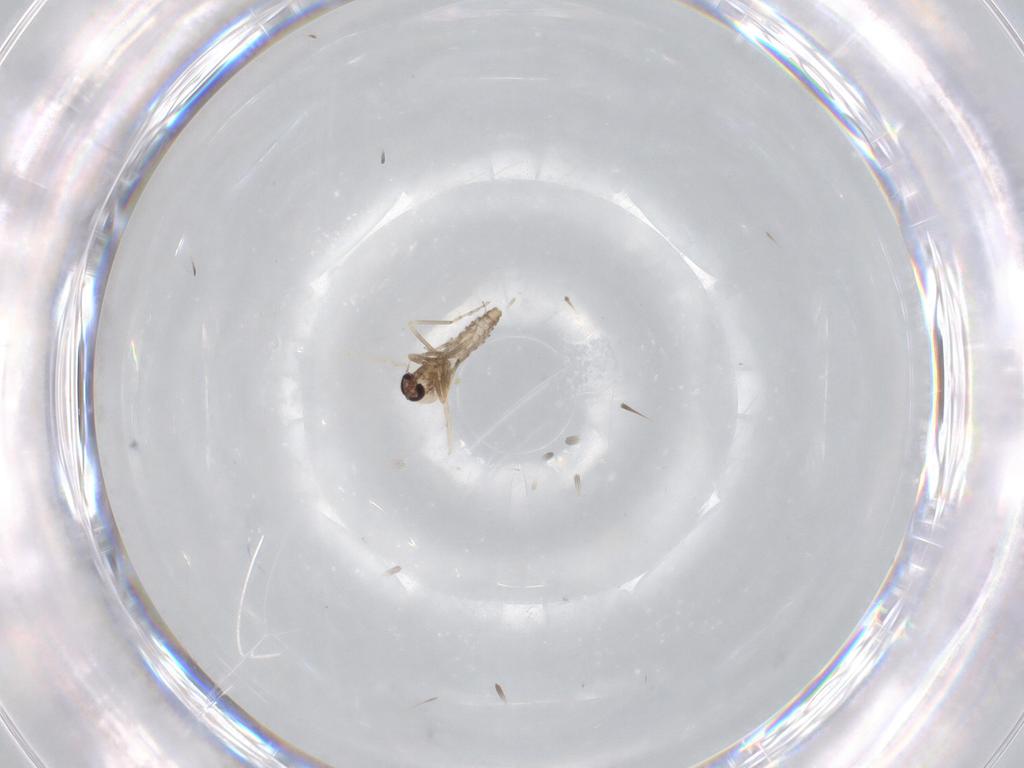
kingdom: Animalia
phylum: Arthropoda
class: Insecta
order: Diptera
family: Ceratopogonidae
